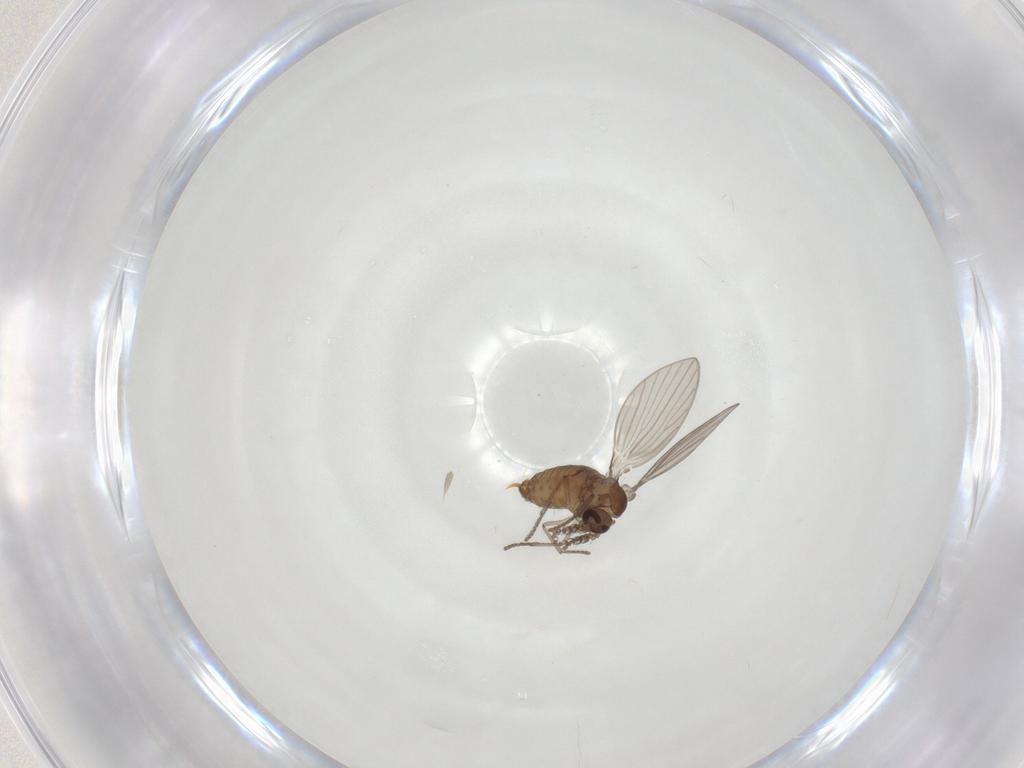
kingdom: Animalia
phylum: Arthropoda
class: Insecta
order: Diptera
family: Psychodidae
